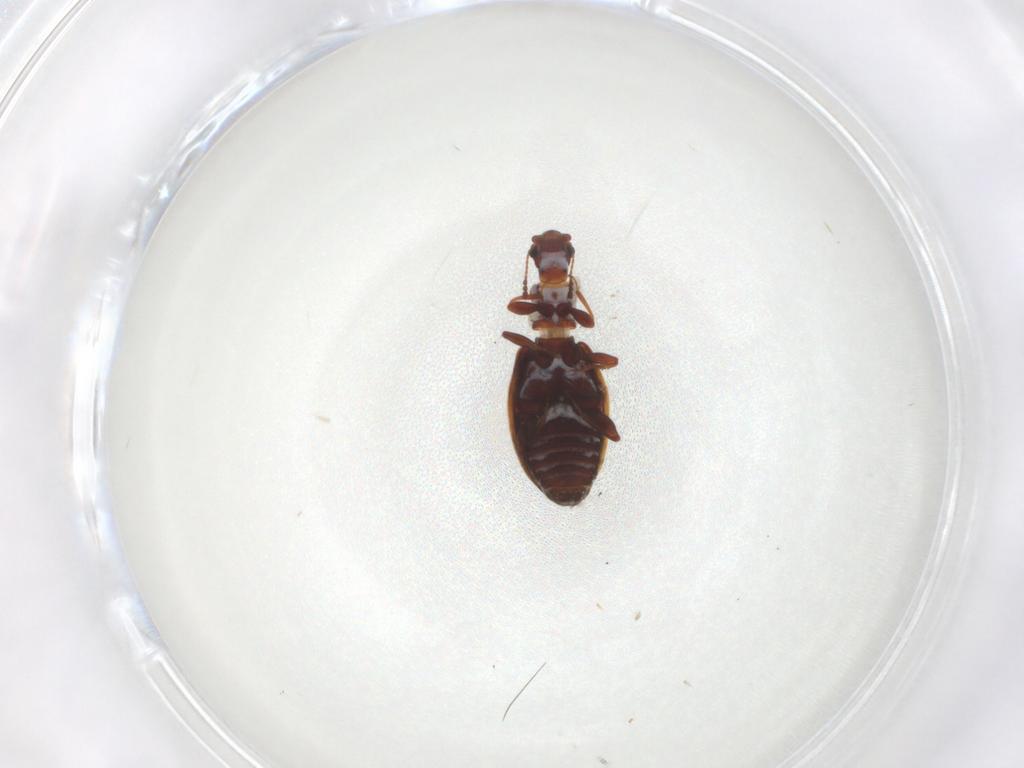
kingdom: Animalia
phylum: Arthropoda
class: Insecta
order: Coleoptera
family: Latridiidae
